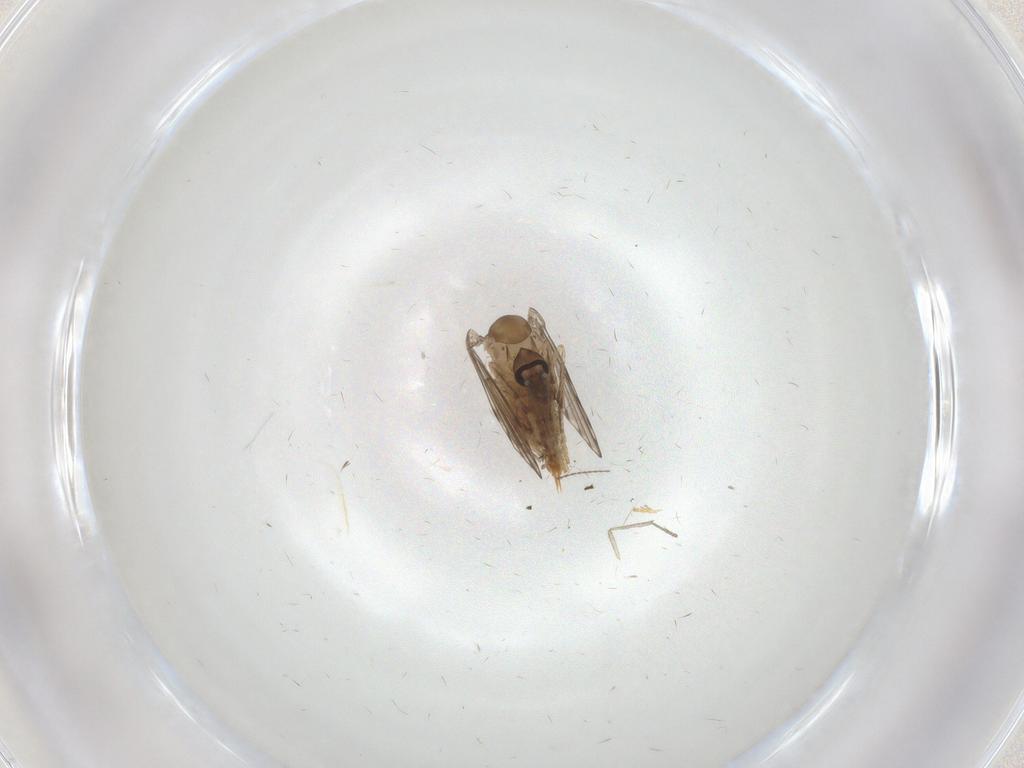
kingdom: Animalia
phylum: Arthropoda
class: Insecta
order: Diptera
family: Psychodidae
